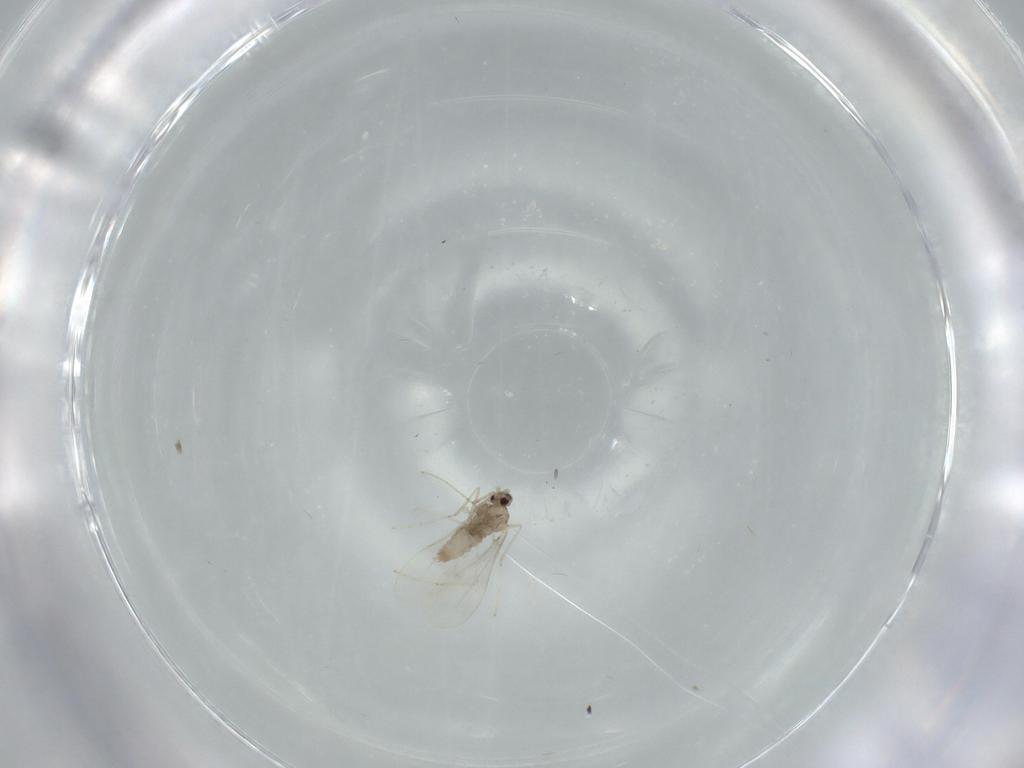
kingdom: Animalia
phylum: Arthropoda
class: Insecta
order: Diptera
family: Cecidomyiidae
